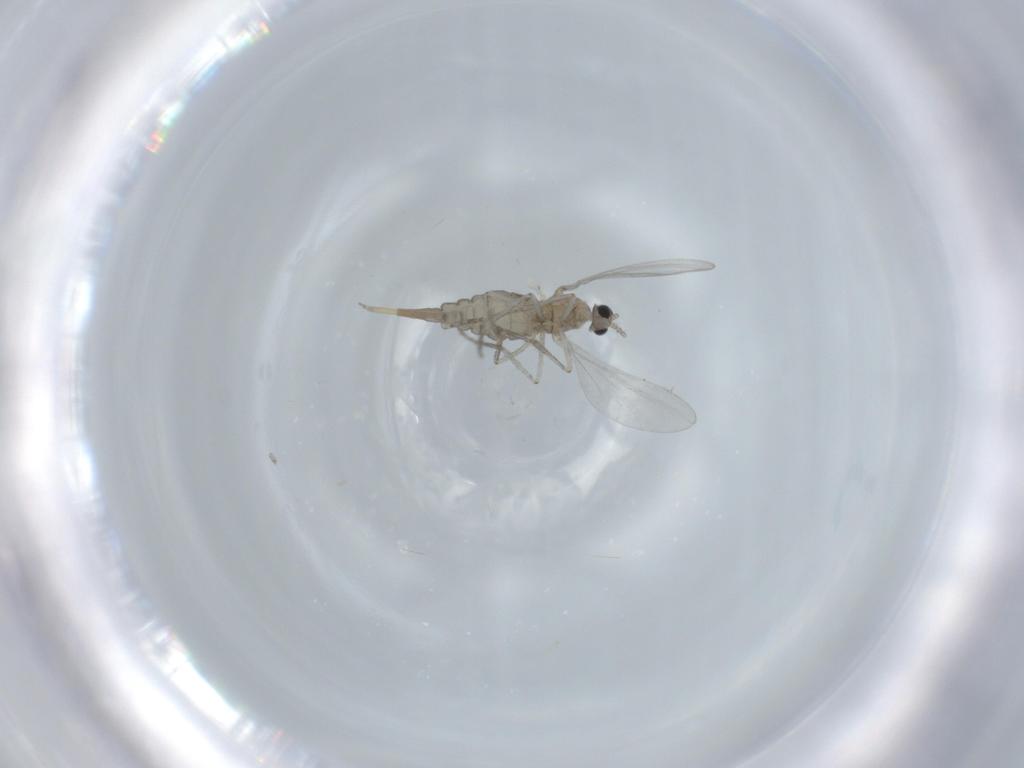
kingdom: Animalia
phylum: Arthropoda
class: Insecta
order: Diptera
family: Cecidomyiidae
